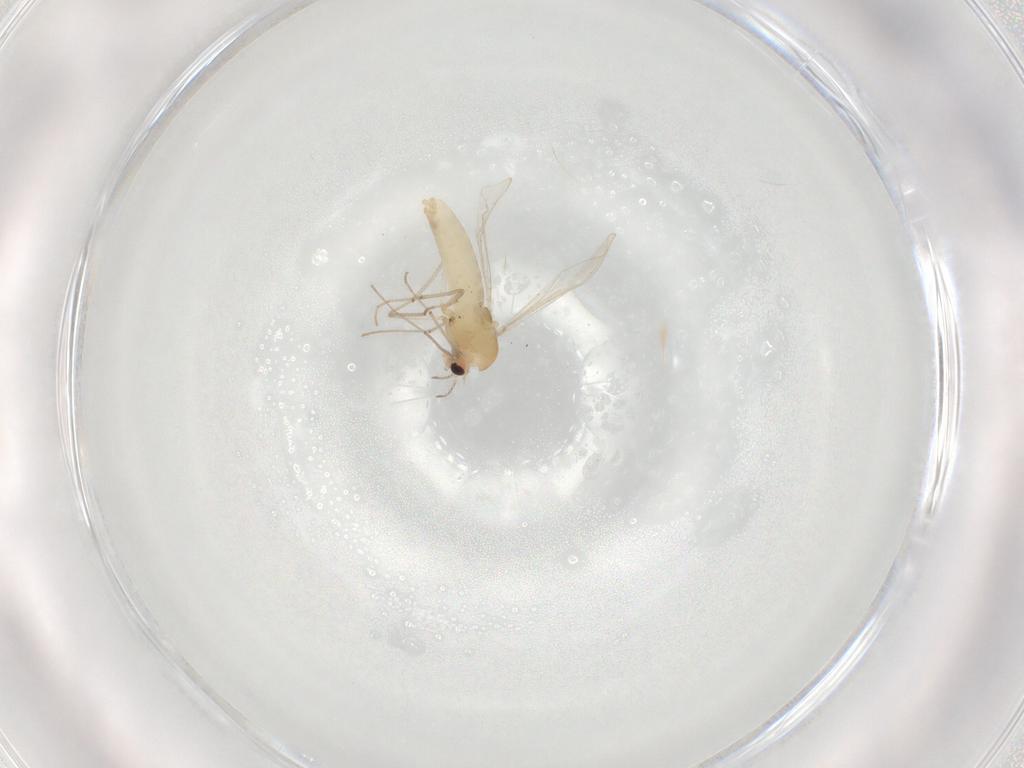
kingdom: Animalia
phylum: Arthropoda
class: Insecta
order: Diptera
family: Chironomidae
